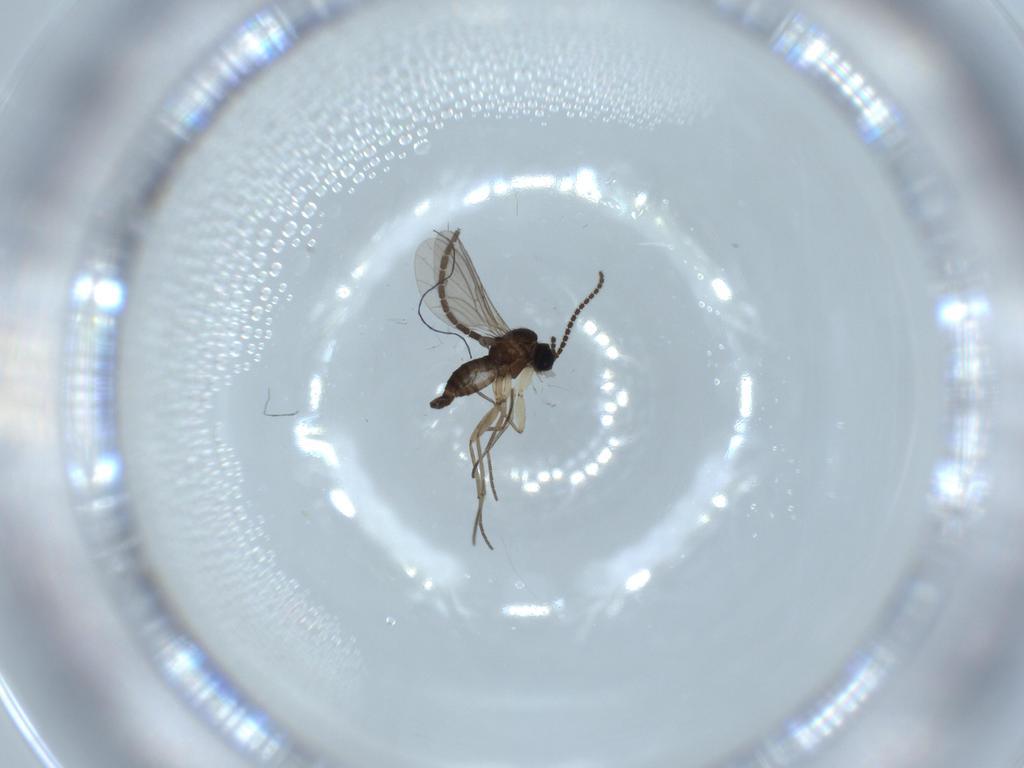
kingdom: Animalia
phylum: Arthropoda
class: Insecta
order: Diptera
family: Sciaridae
